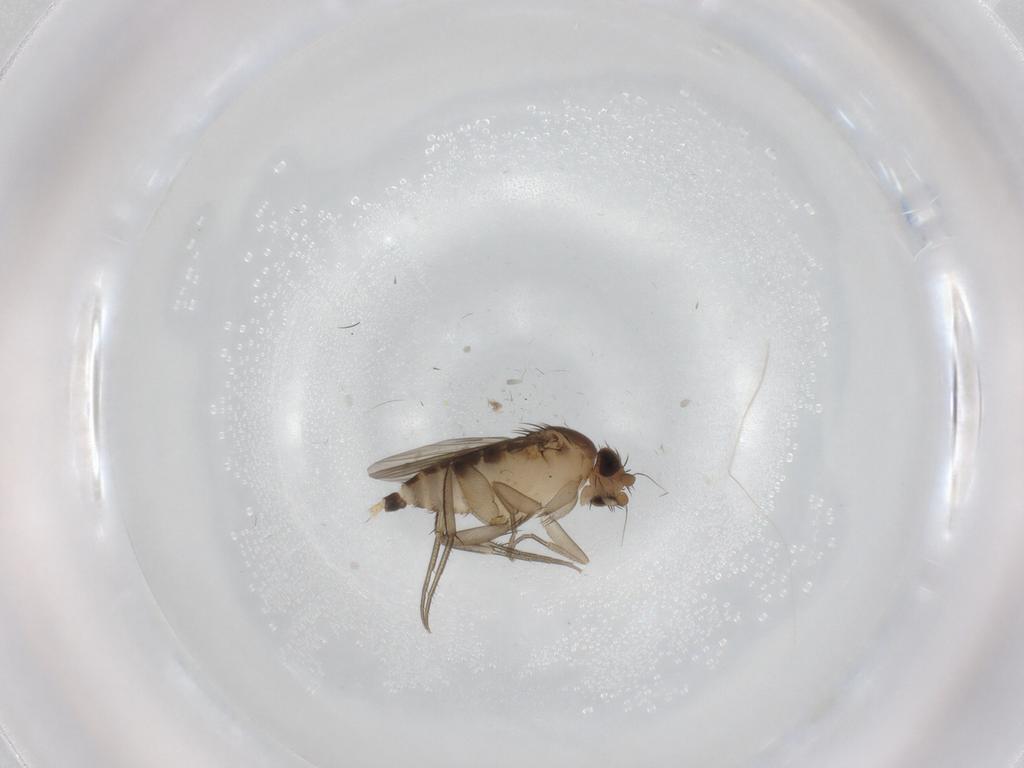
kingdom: Animalia
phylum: Arthropoda
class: Insecta
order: Diptera
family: Phoridae
